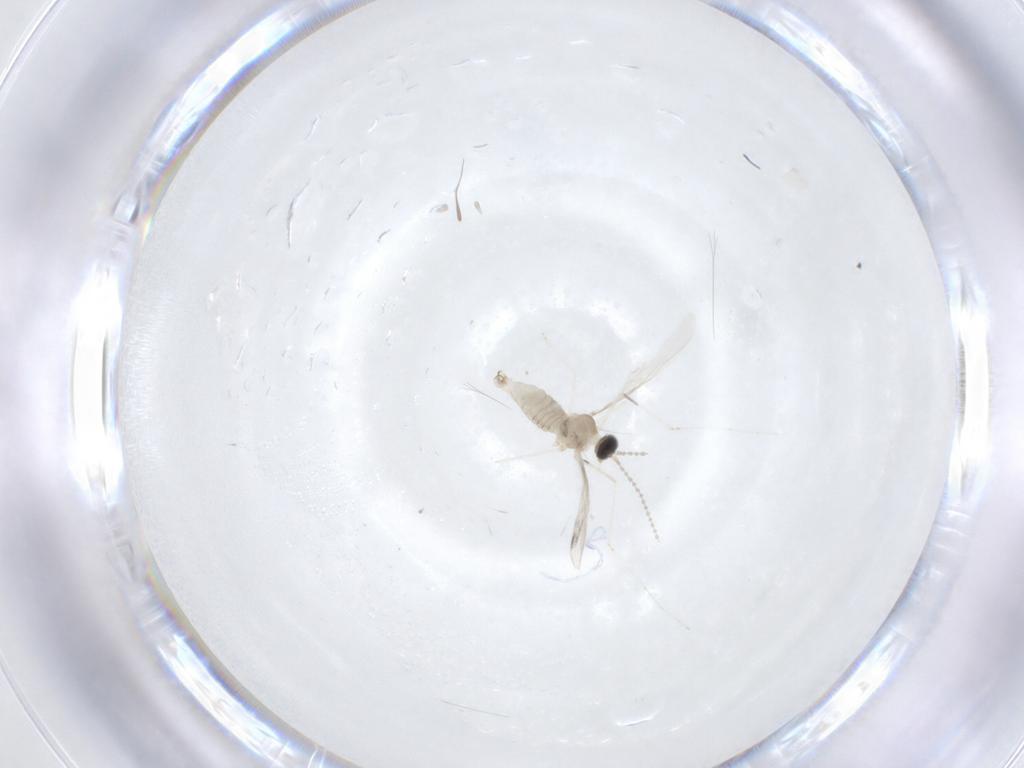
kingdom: Animalia
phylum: Arthropoda
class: Insecta
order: Diptera
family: Cecidomyiidae
